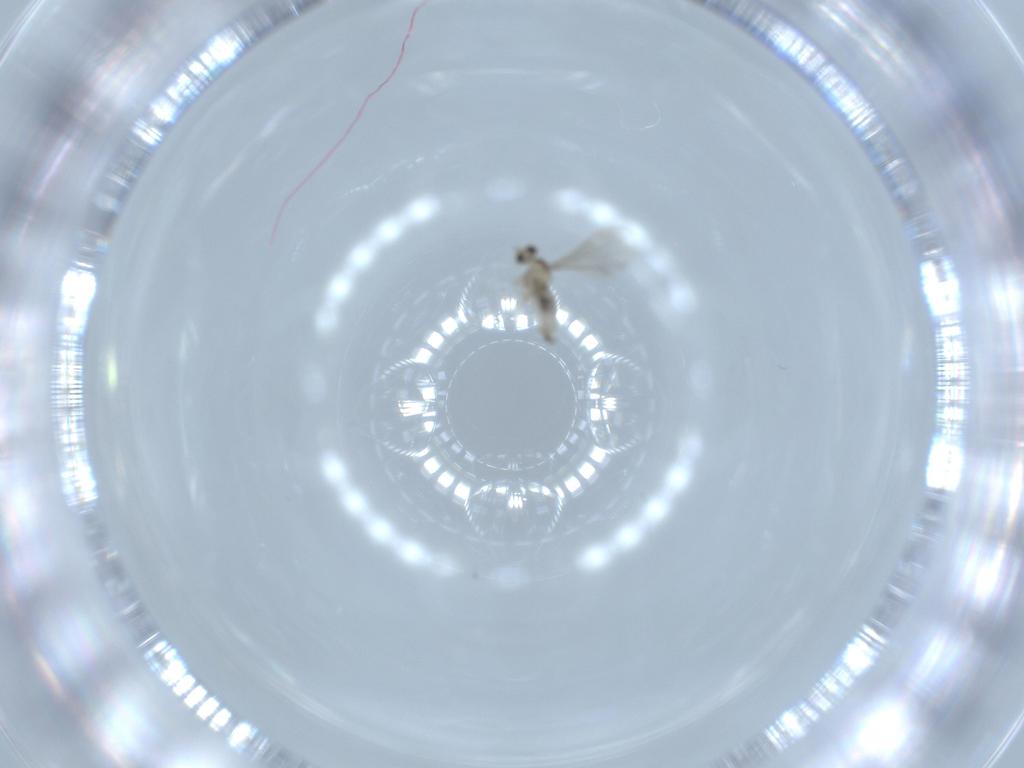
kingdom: Animalia
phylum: Arthropoda
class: Insecta
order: Diptera
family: Cecidomyiidae
